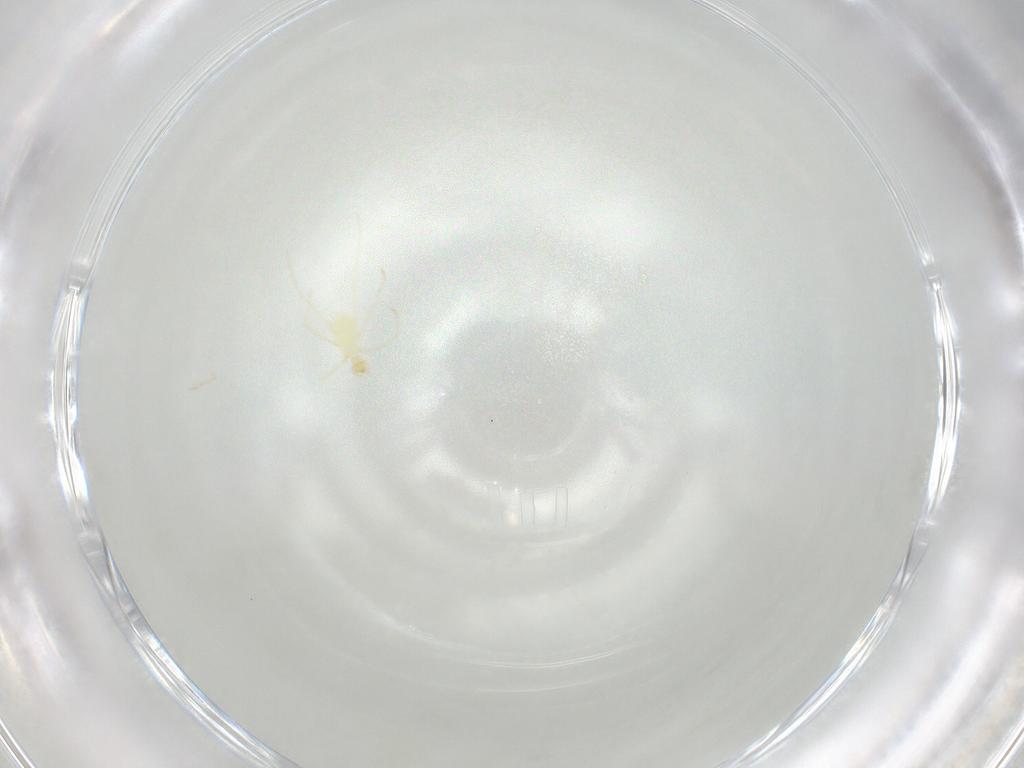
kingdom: Animalia
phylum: Arthropoda
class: Arachnida
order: Trombidiformes
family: Erythraeidae
